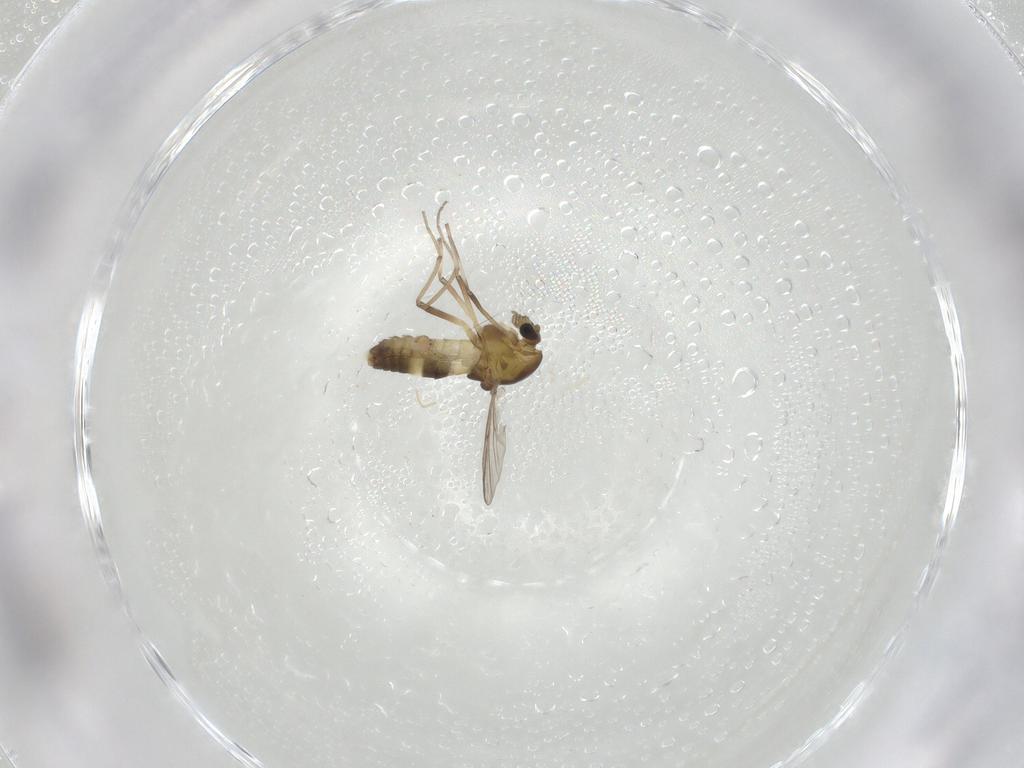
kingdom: Animalia
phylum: Arthropoda
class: Insecta
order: Diptera
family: Chironomidae
